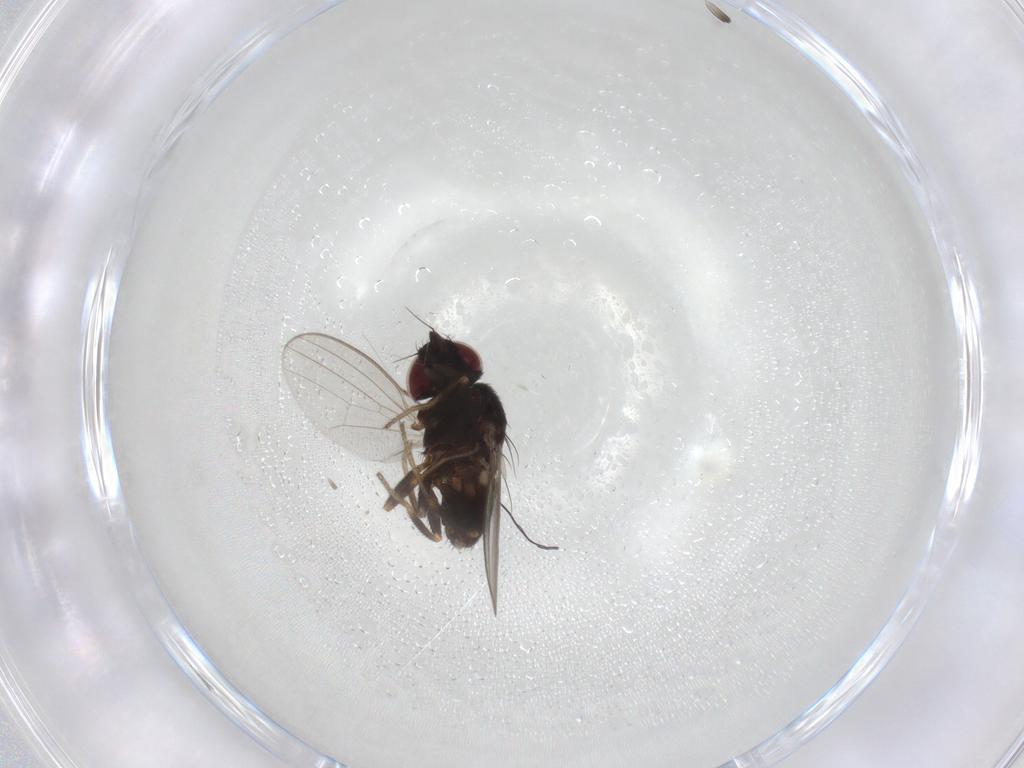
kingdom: Animalia
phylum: Arthropoda
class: Insecta
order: Diptera
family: Milichiidae
